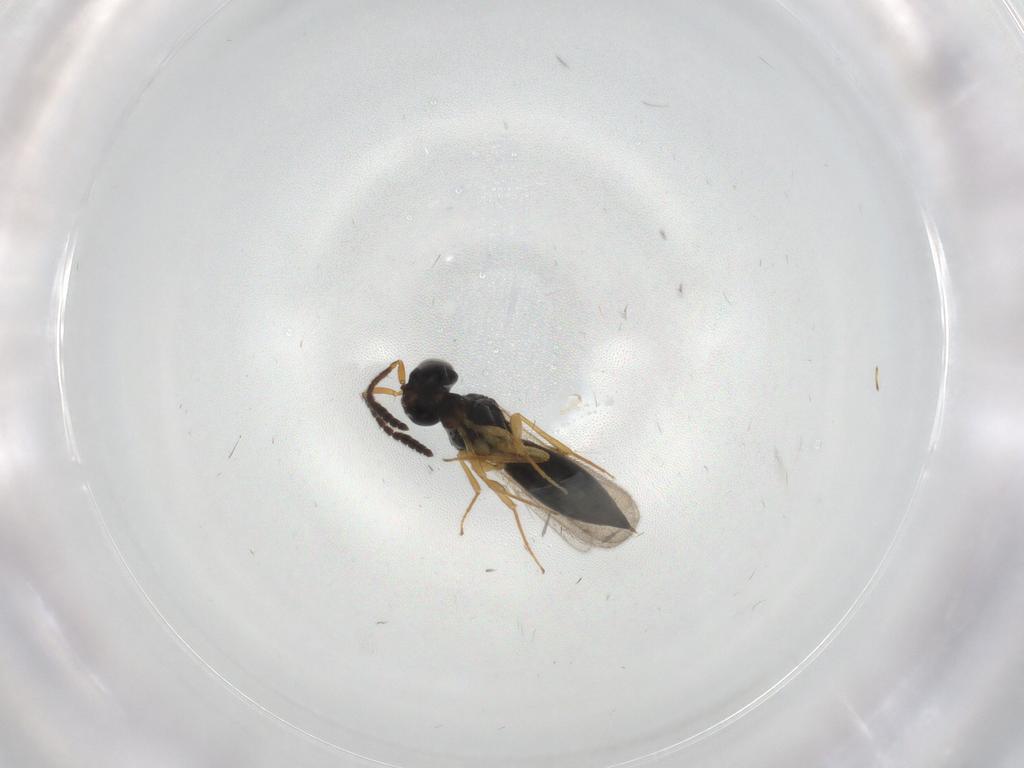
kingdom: Animalia
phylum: Arthropoda
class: Insecta
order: Hymenoptera
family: Scelionidae
